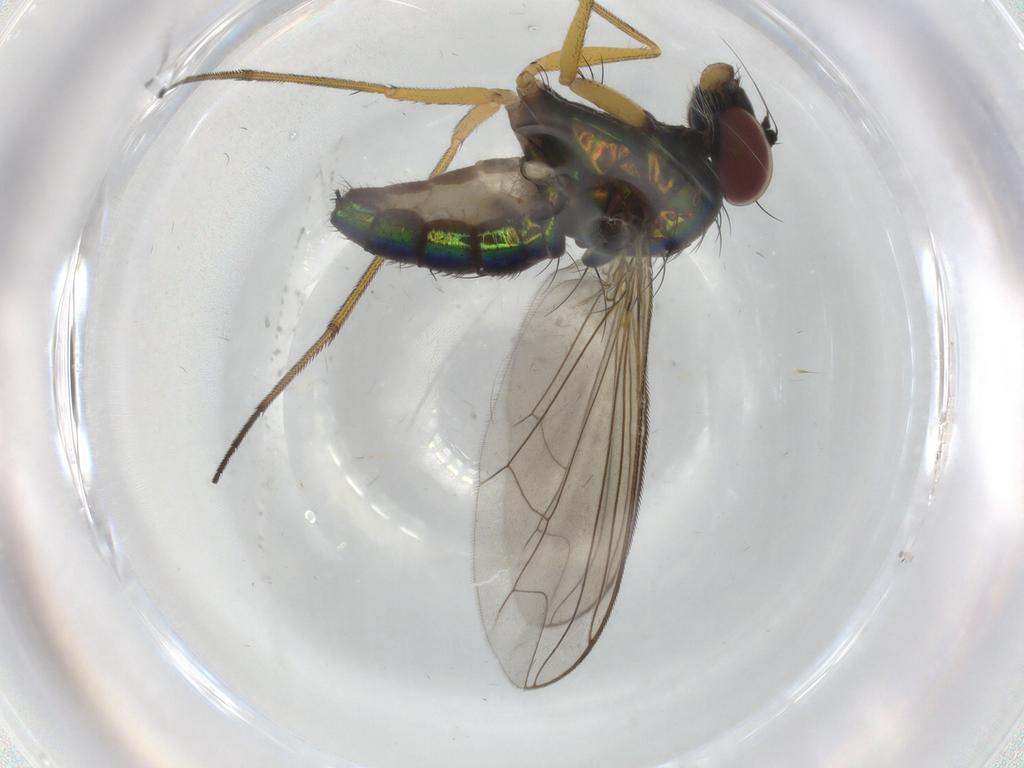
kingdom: Animalia
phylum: Arthropoda
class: Insecta
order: Diptera
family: Dolichopodidae
